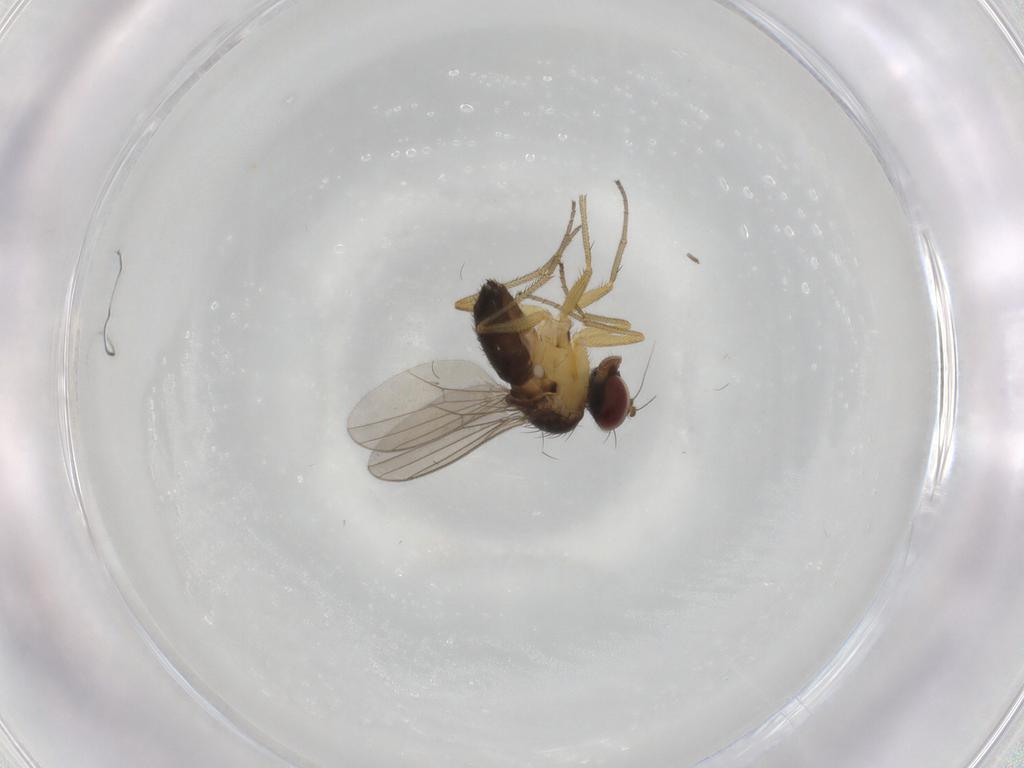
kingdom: Animalia
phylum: Arthropoda
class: Insecta
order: Diptera
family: Dolichopodidae
